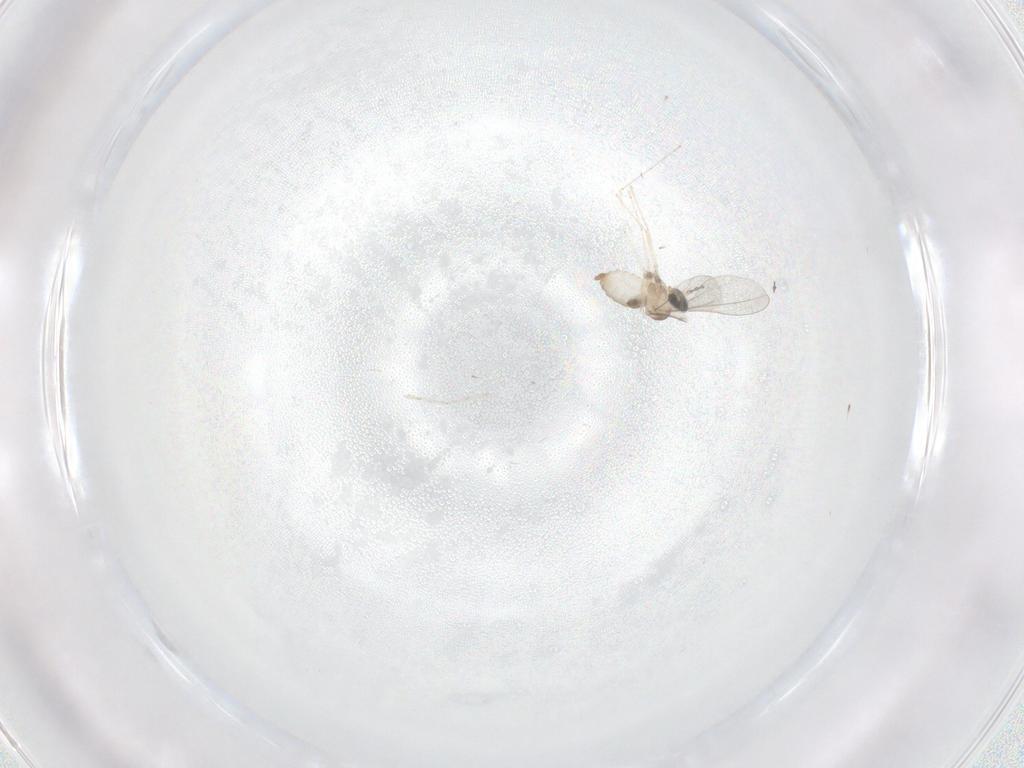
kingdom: Animalia
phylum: Arthropoda
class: Insecta
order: Diptera
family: Cecidomyiidae
